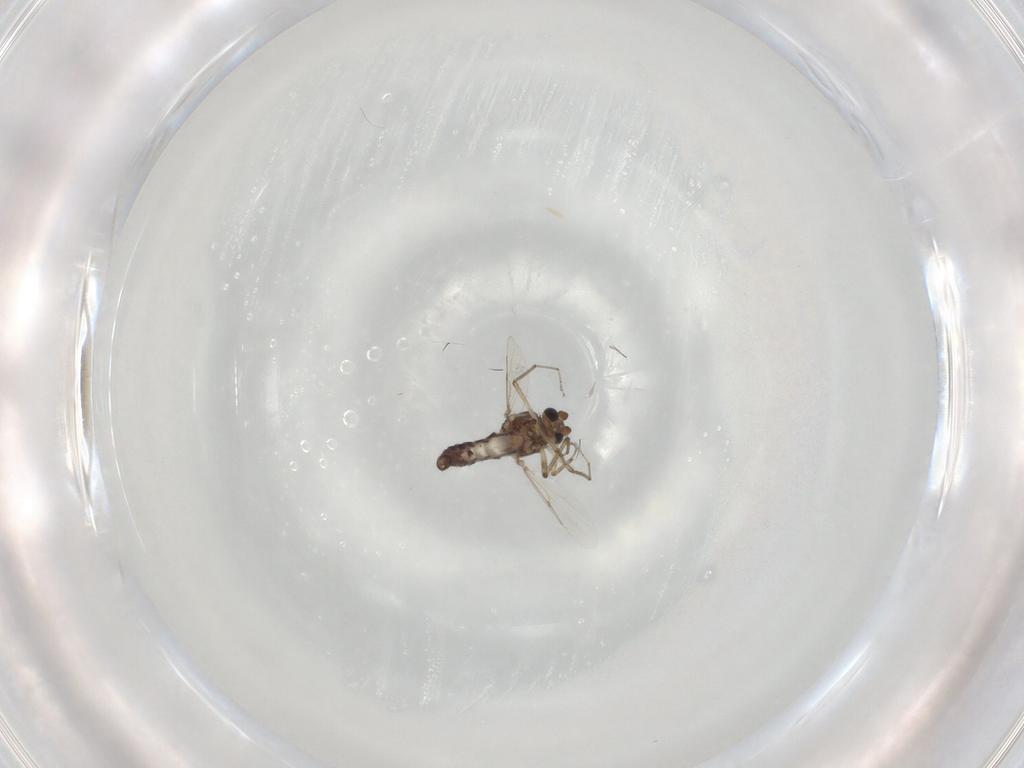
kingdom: Animalia
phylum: Arthropoda
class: Insecta
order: Diptera
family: Ceratopogonidae
